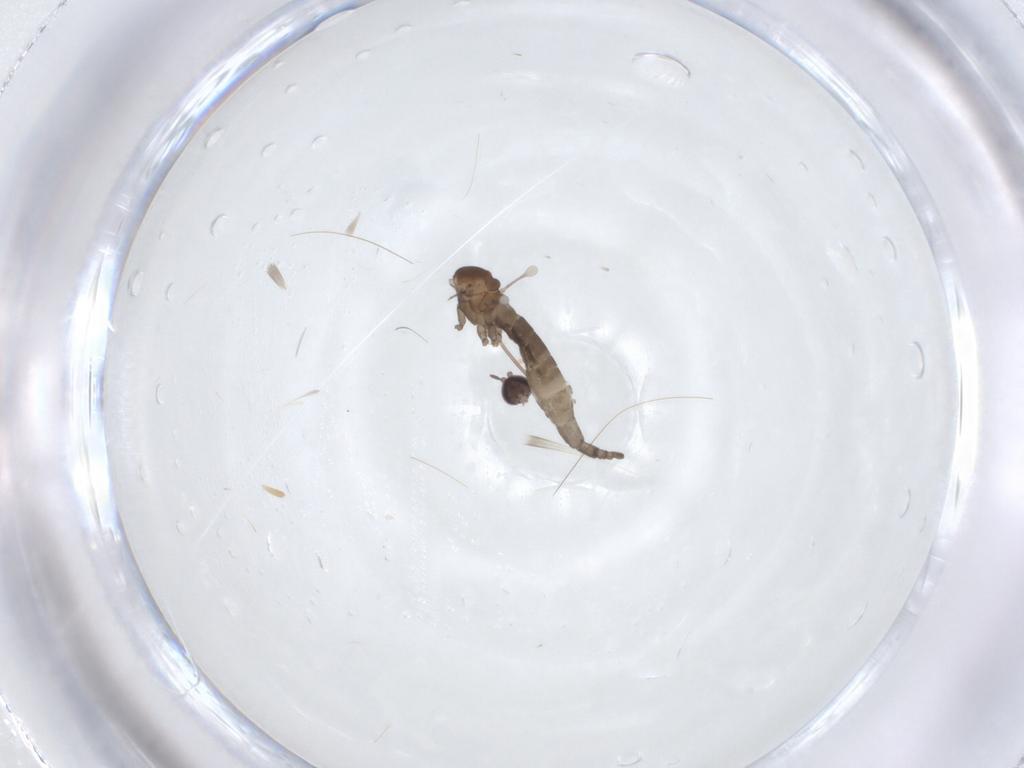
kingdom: Animalia
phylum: Arthropoda
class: Insecta
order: Diptera
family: Cecidomyiidae
